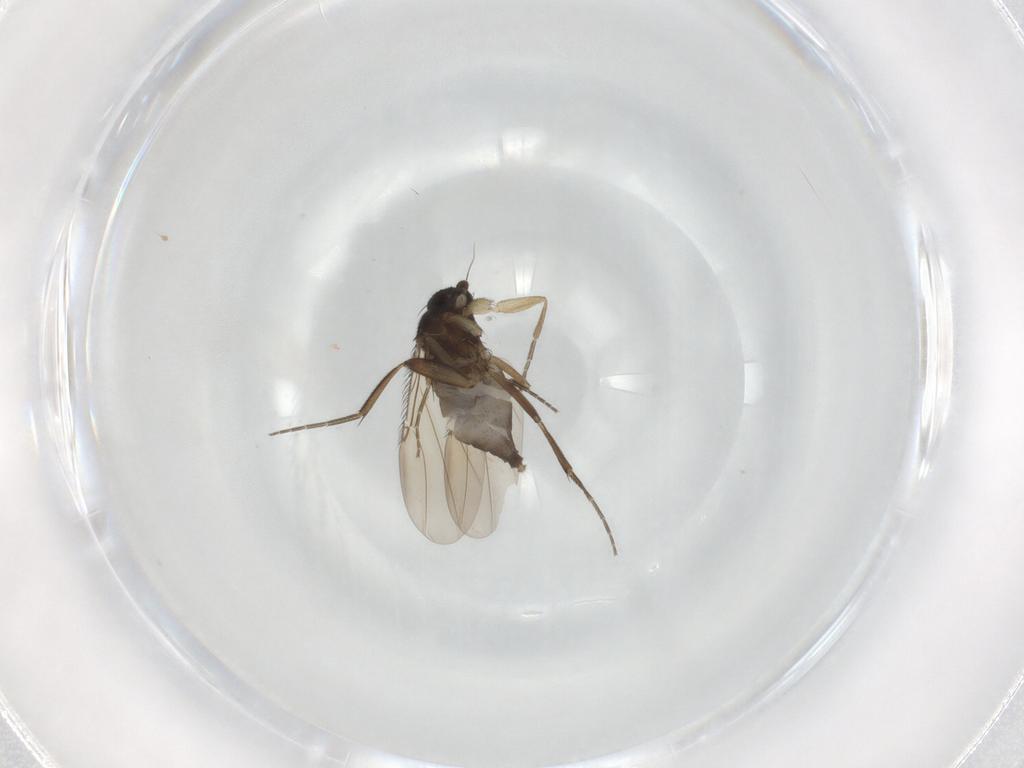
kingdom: Animalia
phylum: Arthropoda
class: Insecta
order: Diptera
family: Phoridae
